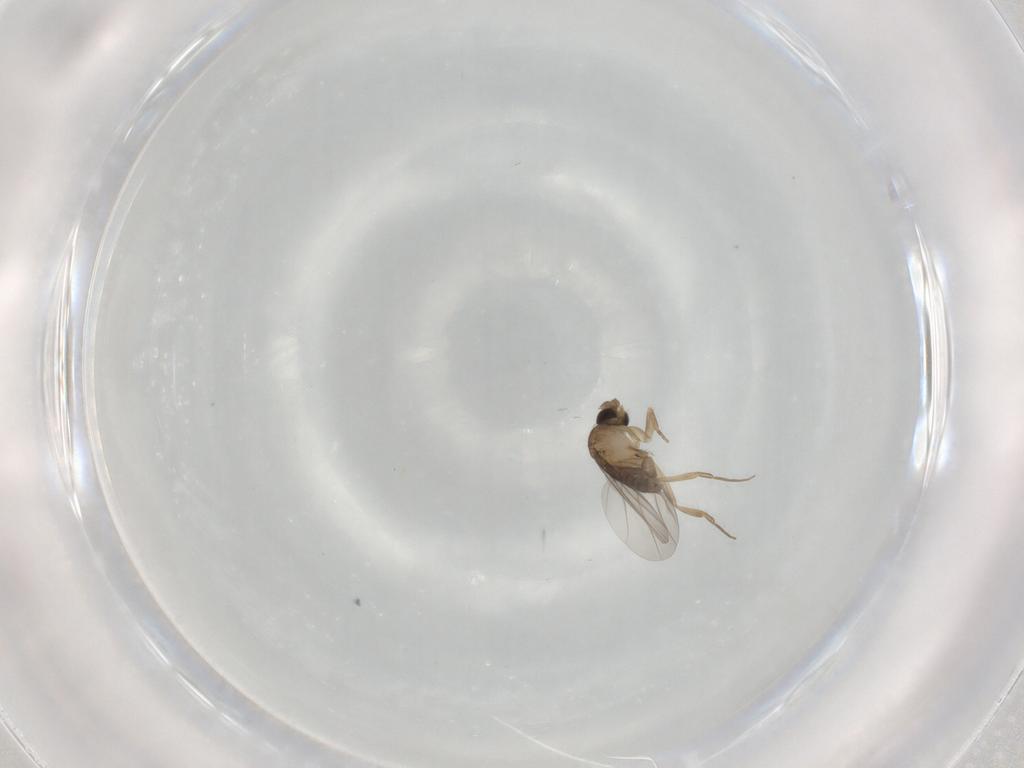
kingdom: Animalia
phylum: Arthropoda
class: Insecta
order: Diptera
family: Phoridae
